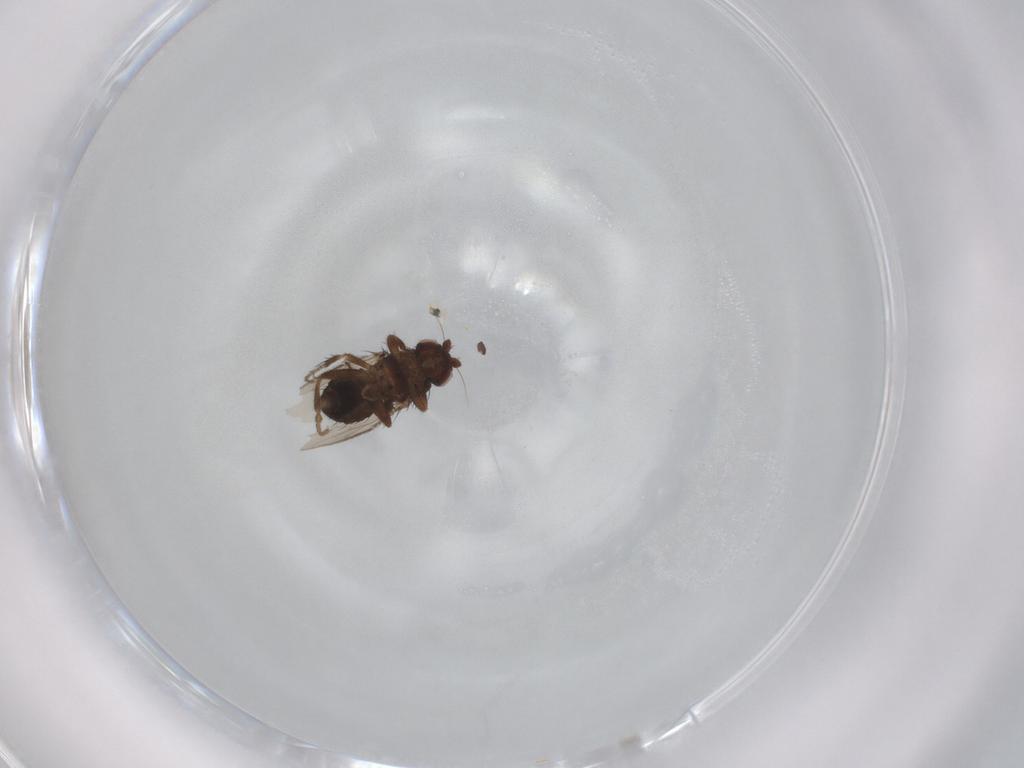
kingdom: Animalia
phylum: Arthropoda
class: Insecta
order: Diptera
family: Sphaeroceridae
